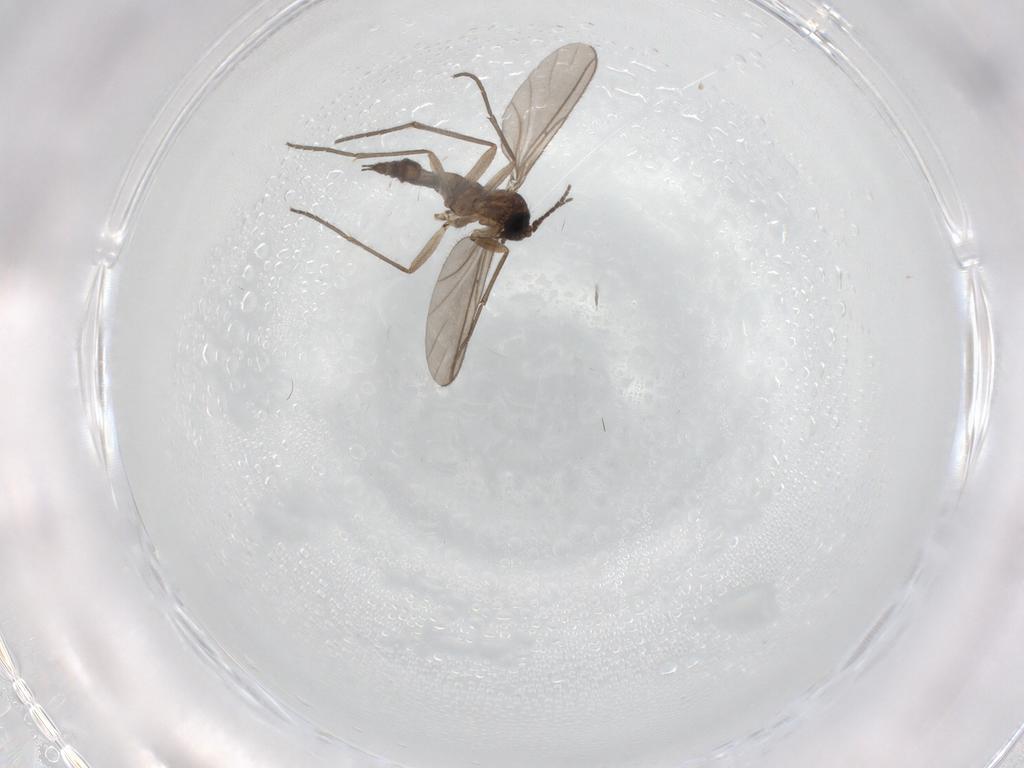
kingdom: Animalia
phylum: Arthropoda
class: Insecta
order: Diptera
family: Sciaridae
